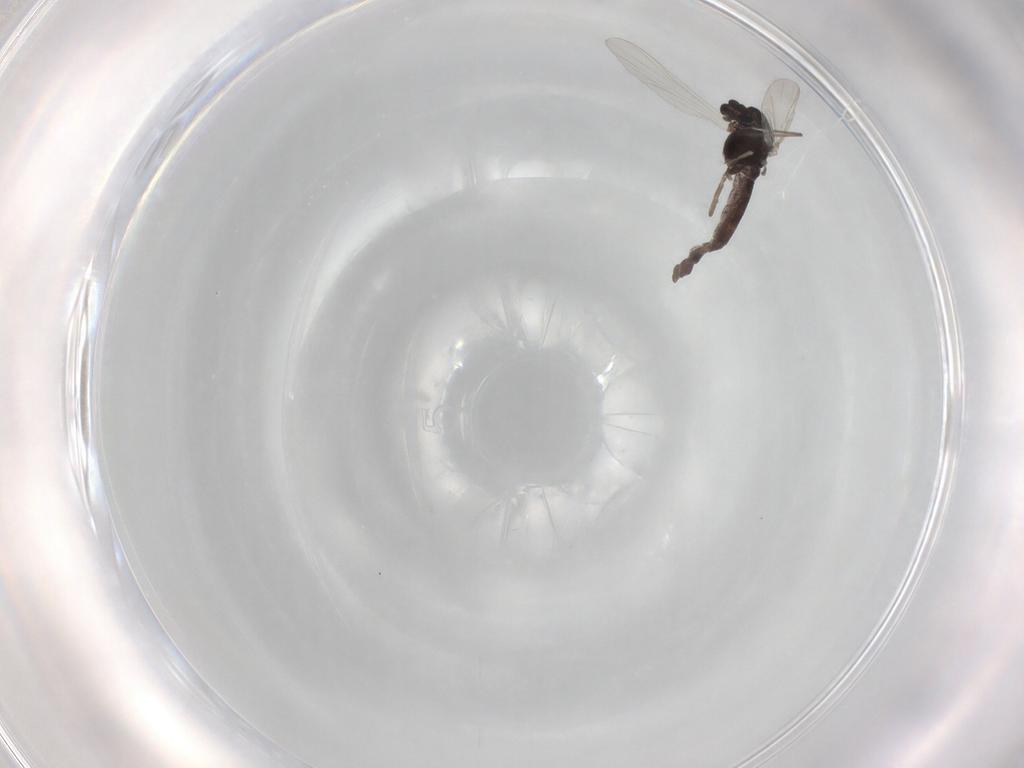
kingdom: Animalia
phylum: Arthropoda
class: Insecta
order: Diptera
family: Chironomidae
